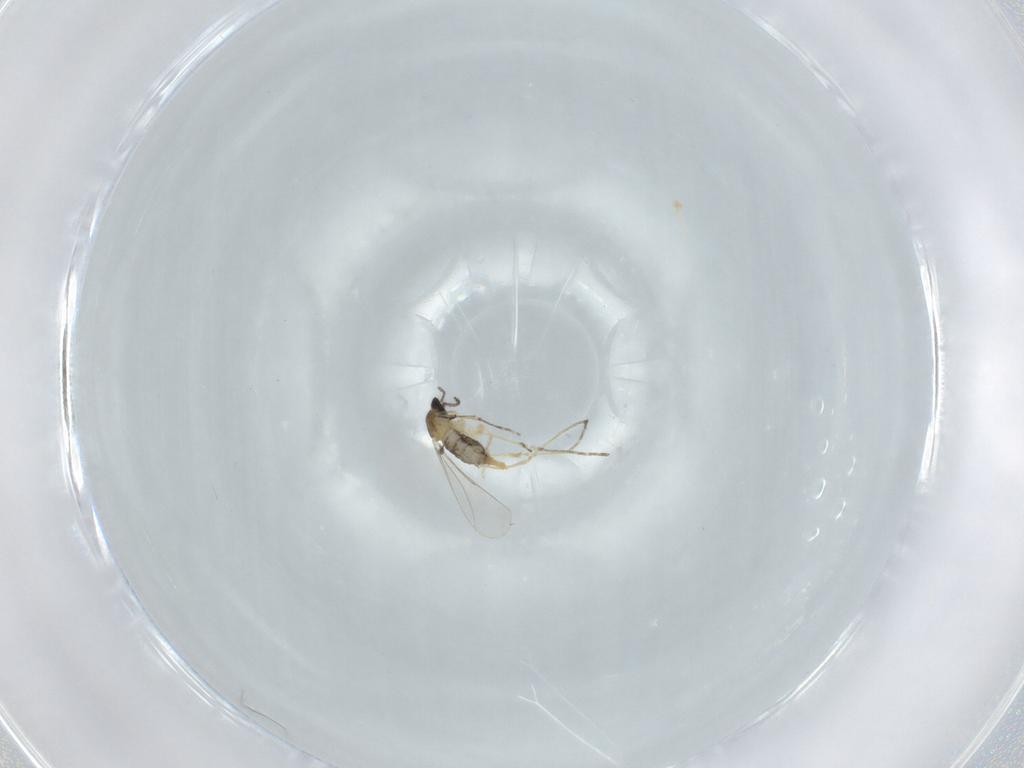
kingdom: Animalia
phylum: Arthropoda
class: Insecta
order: Diptera
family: Cecidomyiidae
